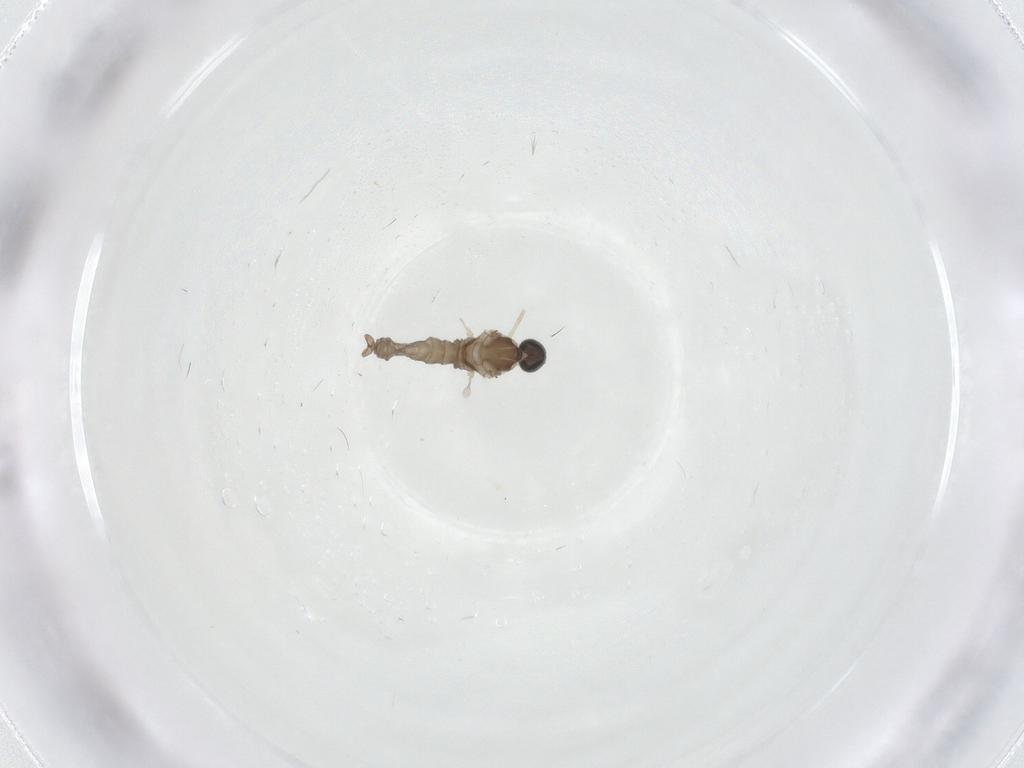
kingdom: Animalia
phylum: Arthropoda
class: Insecta
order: Diptera
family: Cecidomyiidae
